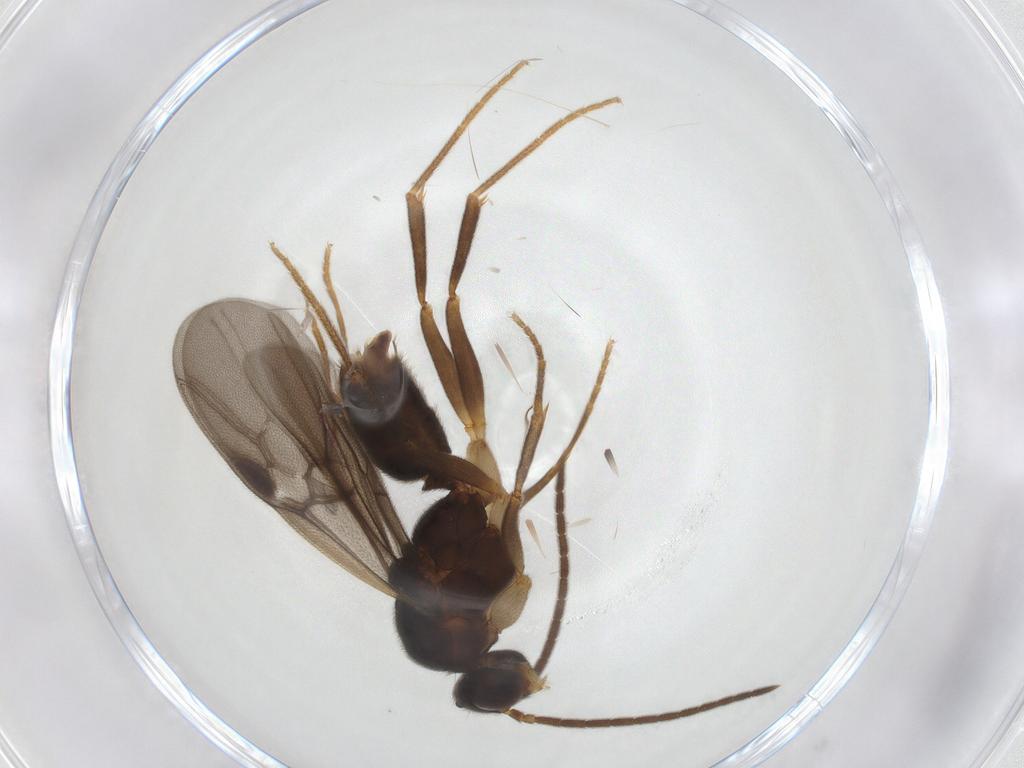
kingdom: Animalia
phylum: Arthropoda
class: Insecta
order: Hymenoptera
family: Formicidae
